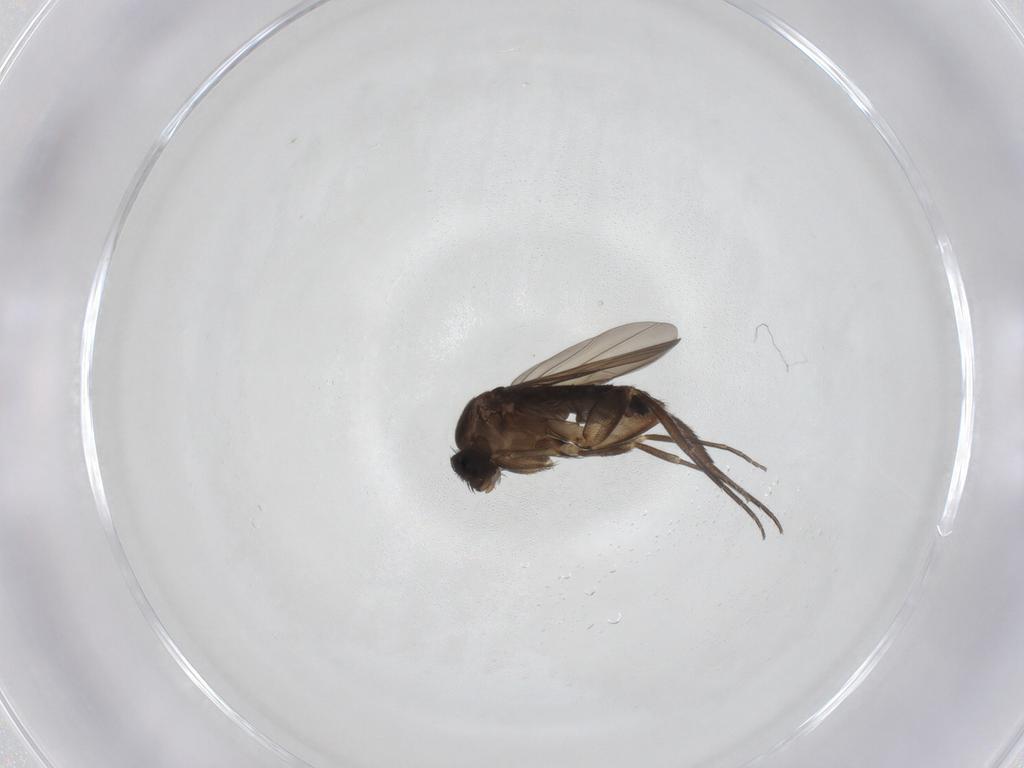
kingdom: Animalia
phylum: Arthropoda
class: Insecta
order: Diptera
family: Phoridae
